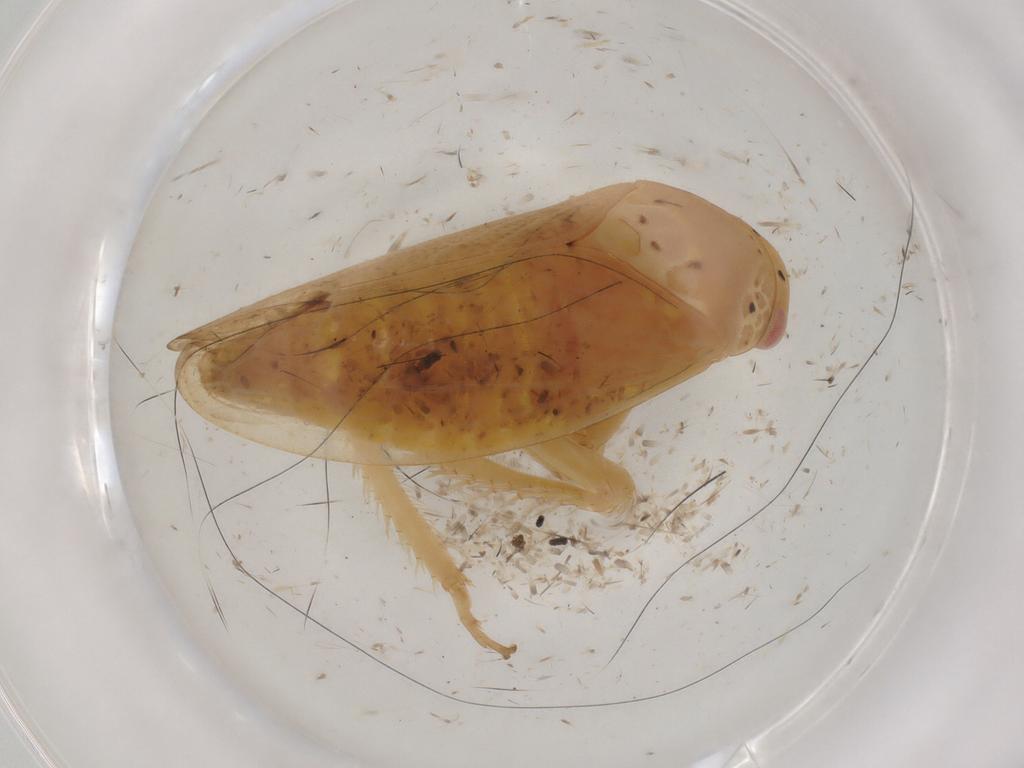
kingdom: Animalia
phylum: Arthropoda
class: Insecta
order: Hemiptera
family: Cicadellidae
